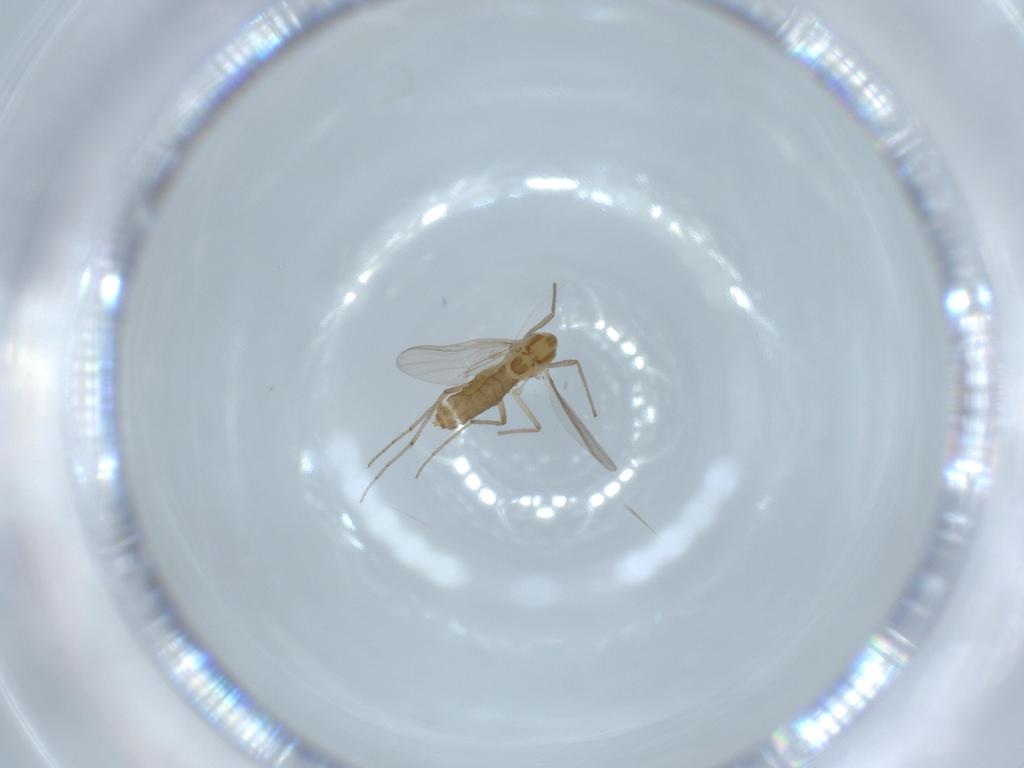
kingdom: Animalia
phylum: Arthropoda
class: Insecta
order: Diptera
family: Chironomidae
